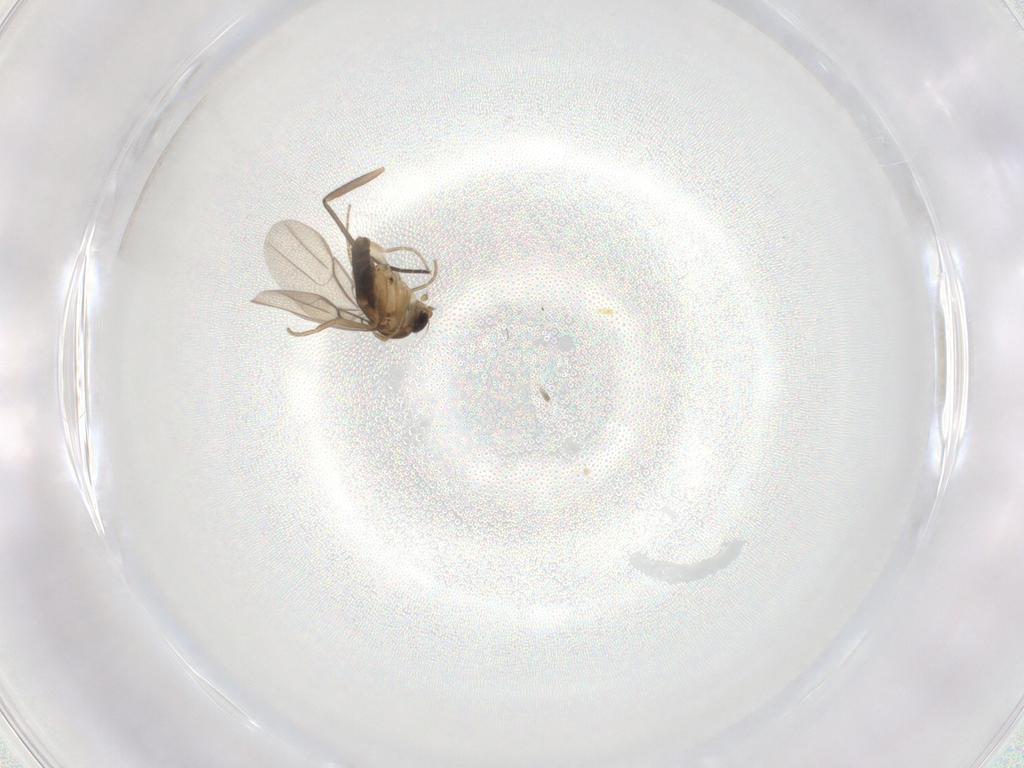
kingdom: Animalia
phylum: Arthropoda
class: Insecta
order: Diptera
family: Phoridae
